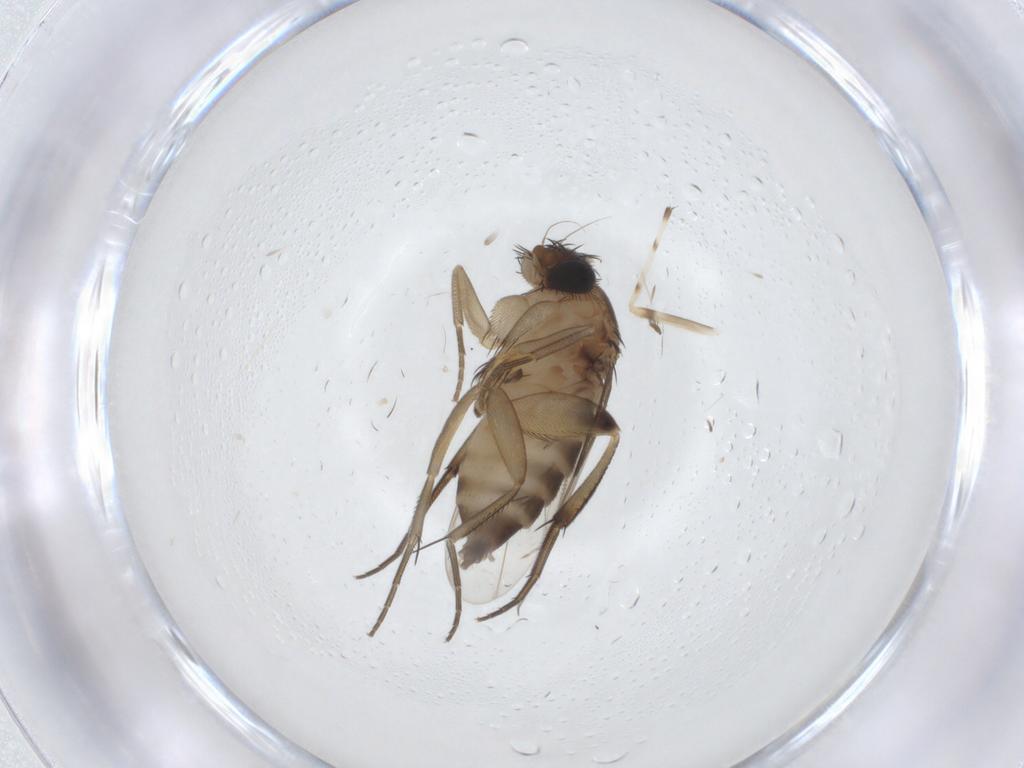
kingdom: Animalia
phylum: Arthropoda
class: Insecta
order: Diptera
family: Phoridae
